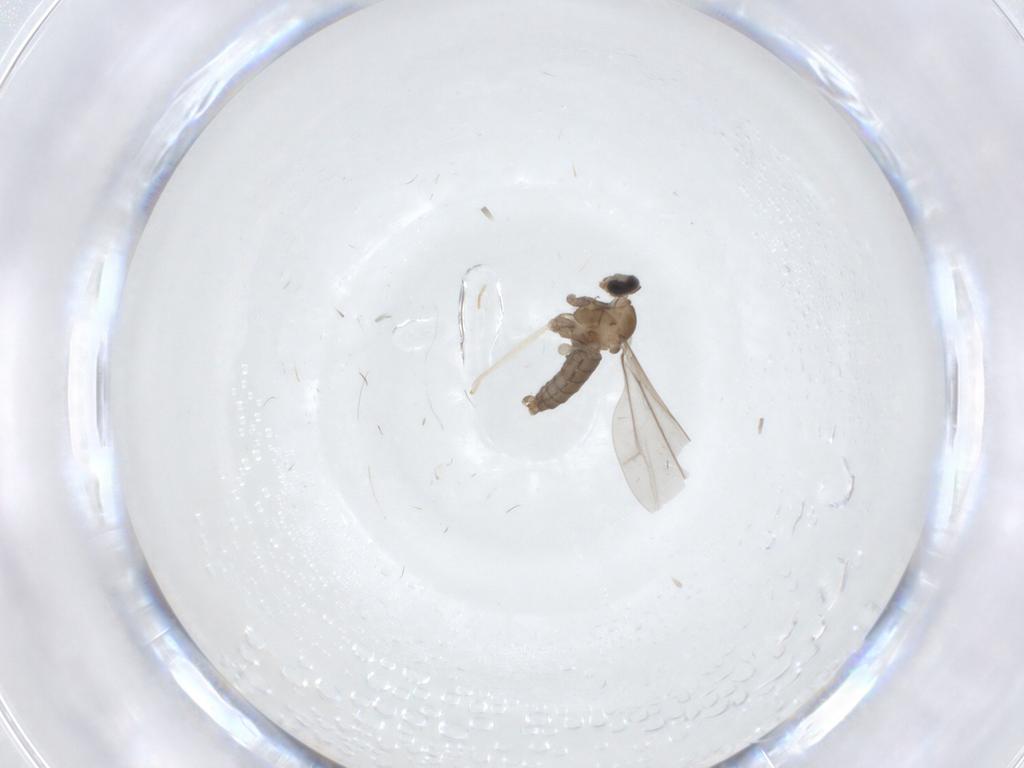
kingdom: Animalia
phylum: Arthropoda
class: Insecta
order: Diptera
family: Cecidomyiidae
